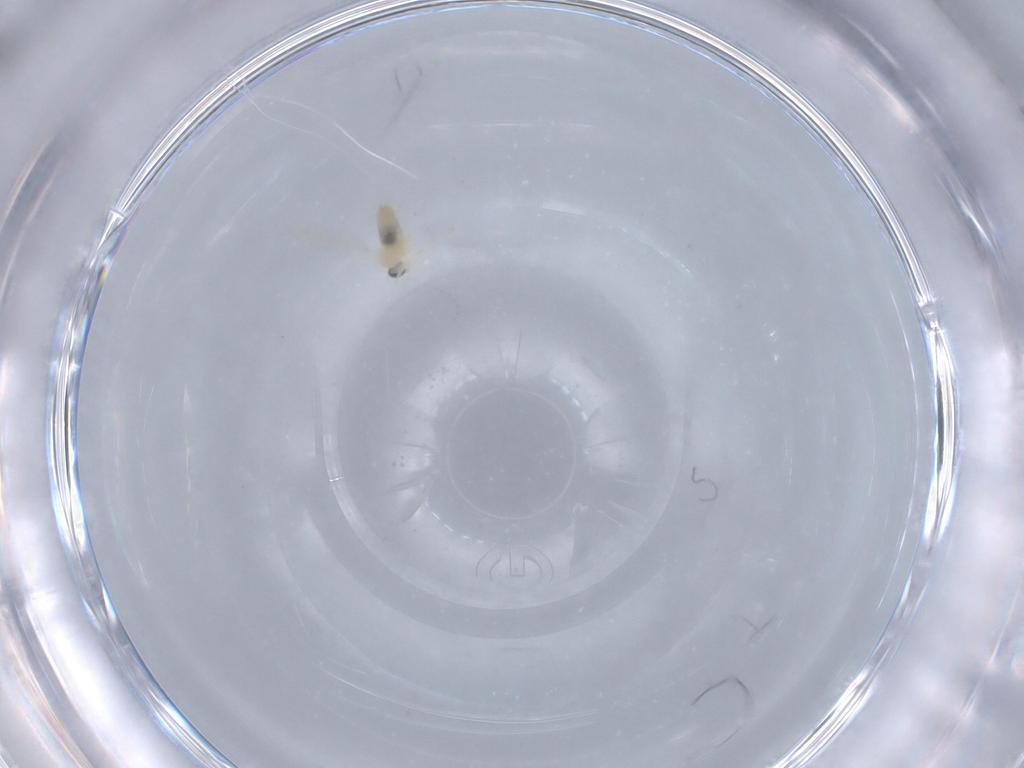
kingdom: Animalia
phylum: Arthropoda
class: Insecta
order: Diptera
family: Cecidomyiidae
